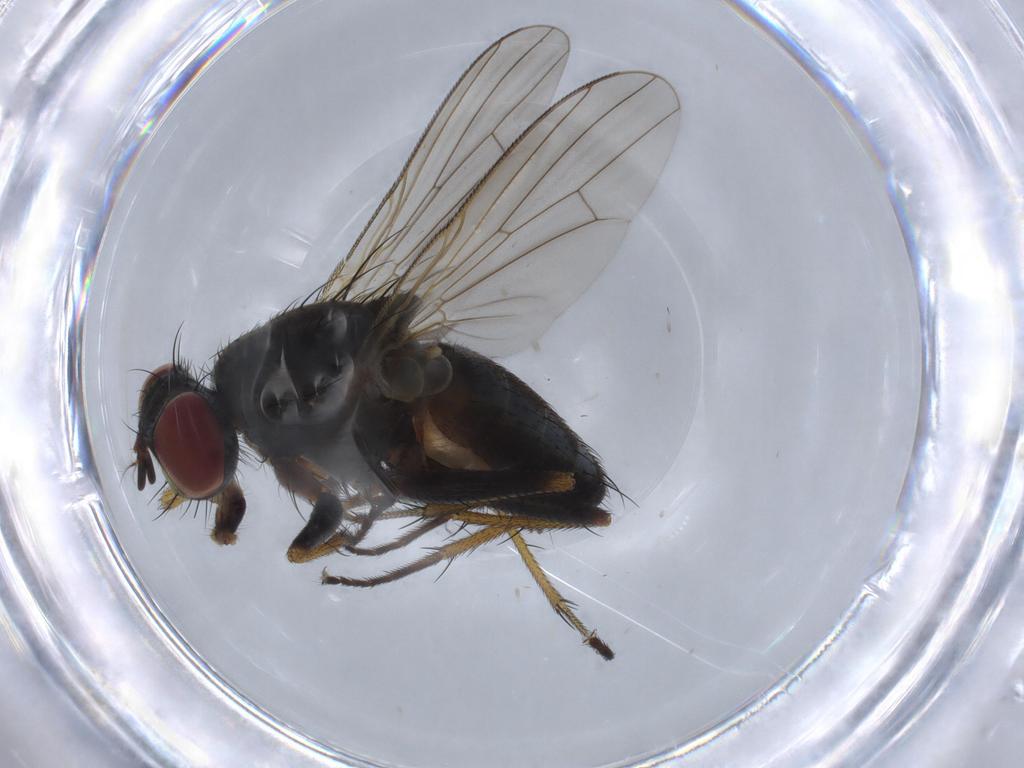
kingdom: Animalia
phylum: Arthropoda
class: Insecta
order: Diptera
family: Muscidae
